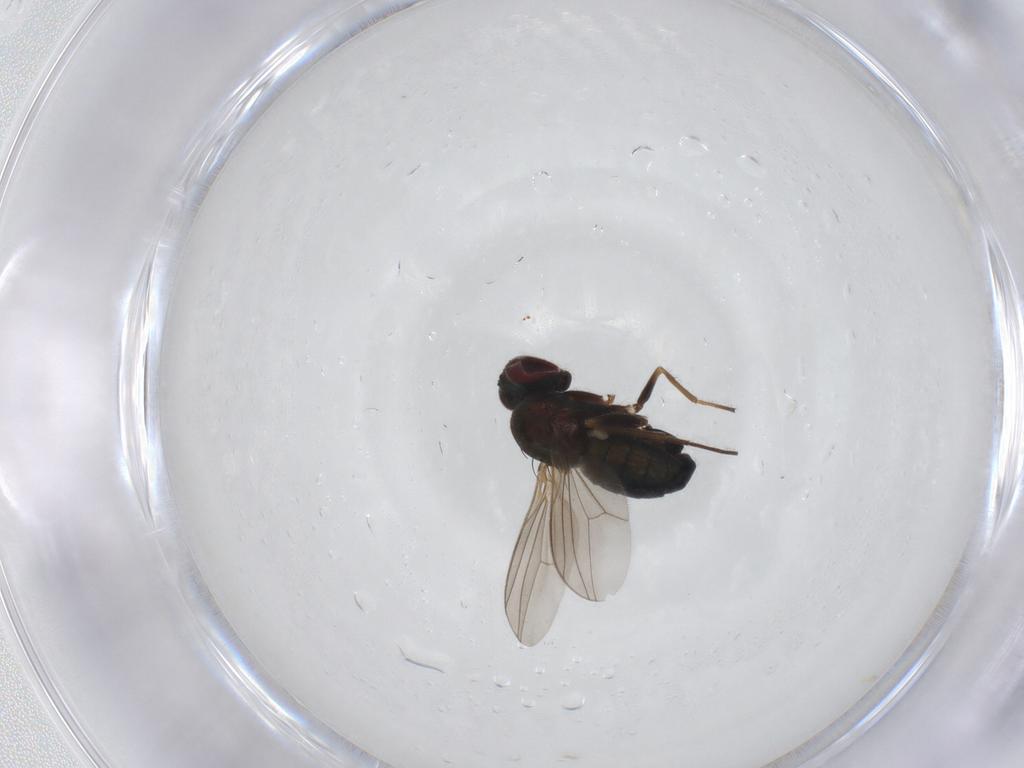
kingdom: Animalia
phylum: Arthropoda
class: Insecta
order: Diptera
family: Dolichopodidae
